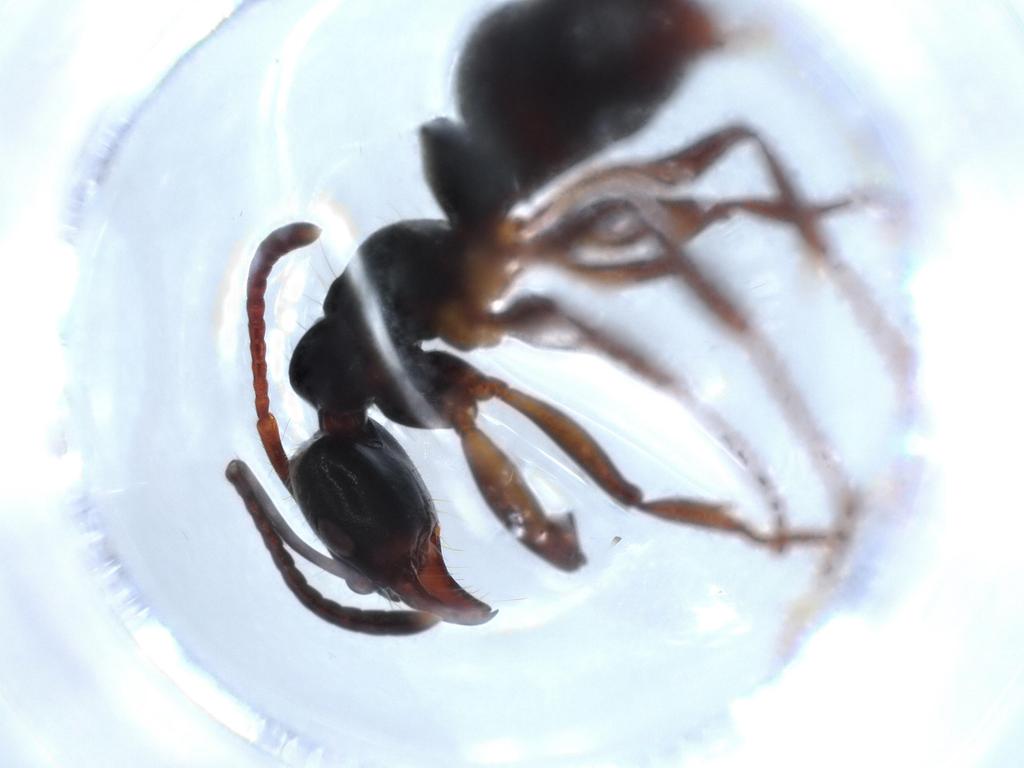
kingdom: Animalia
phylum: Arthropoda
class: Insecta
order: Hymenoptera
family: Formicidae
